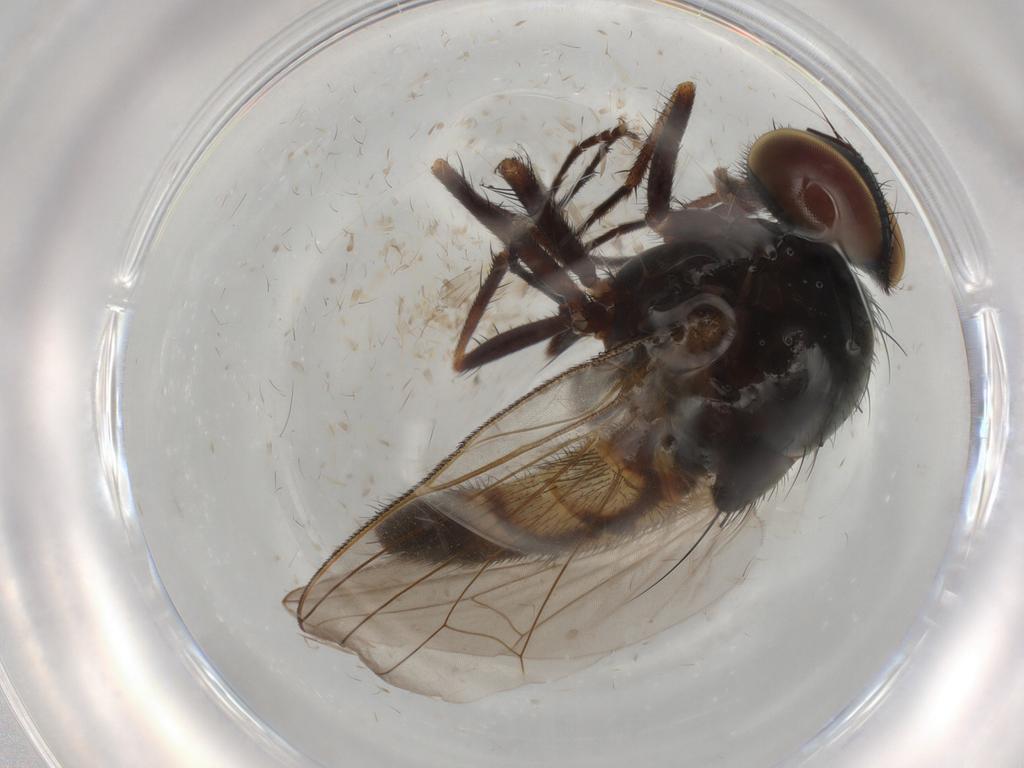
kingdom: Animalia
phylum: Arthropoda
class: Insecta
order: Diptera
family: Fannia
